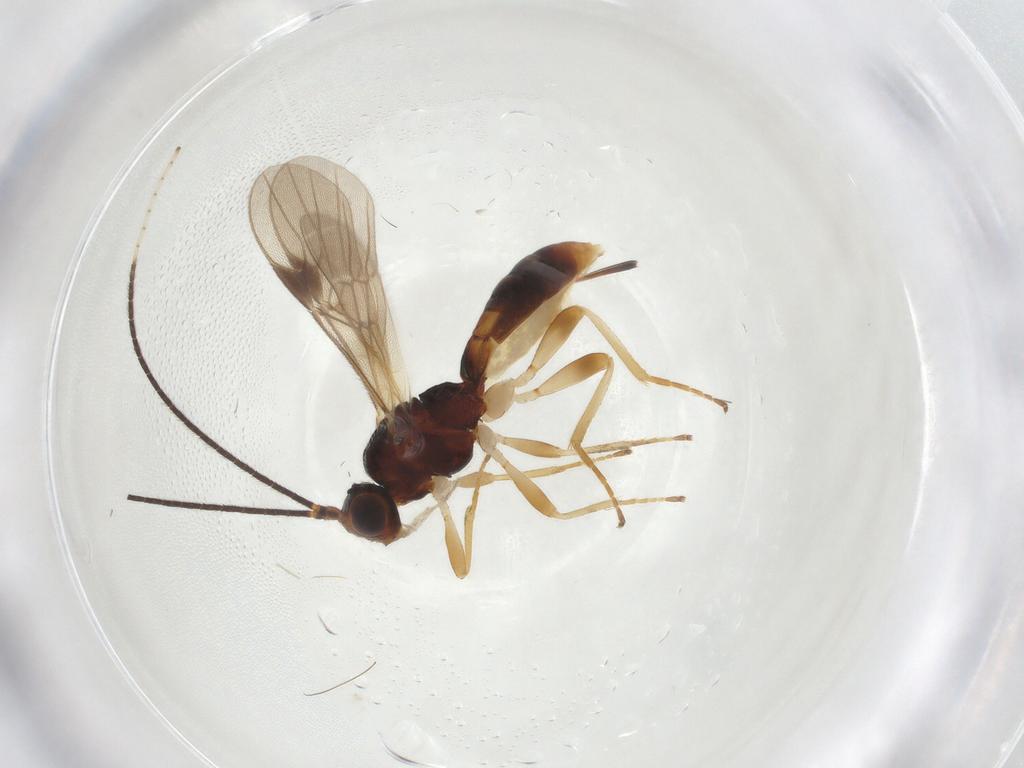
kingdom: Animalia
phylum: Arthropoda
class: Insecta
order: Hymenoptera
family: Braconidae
